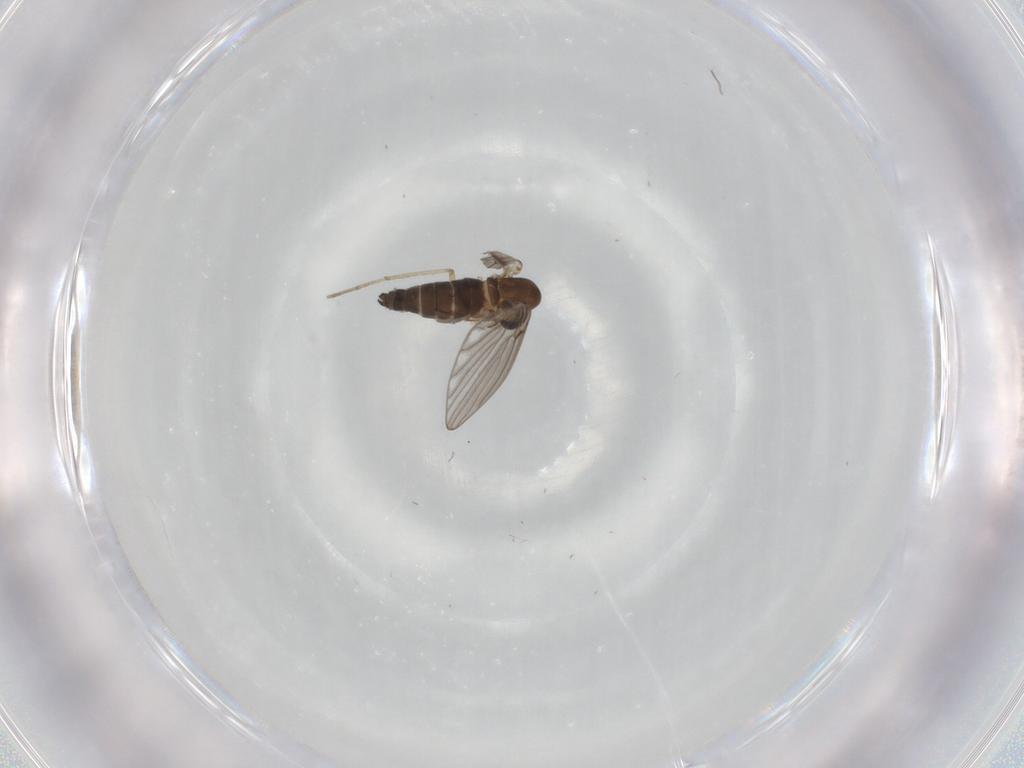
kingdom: Animalia
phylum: Arthropoda
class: Insecta
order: Diptera
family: Psychodidae
